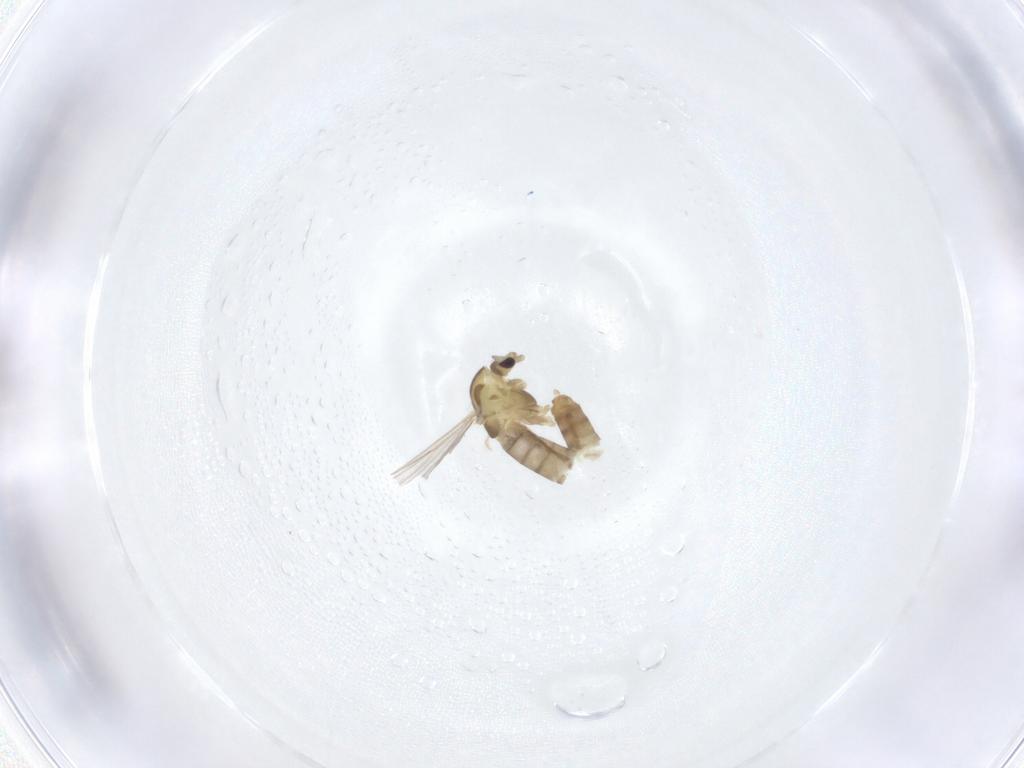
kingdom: Animalia
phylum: Arthropoda
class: Insecta
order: Diptera
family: Chironomidae
